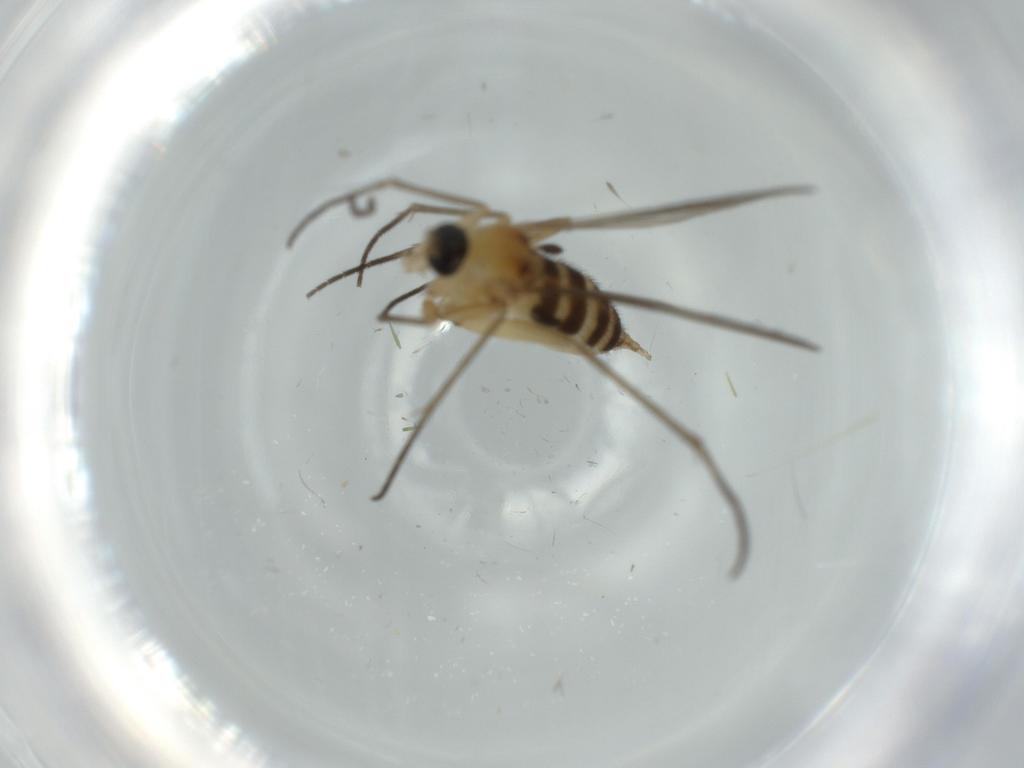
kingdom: Animalia
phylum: Arthropoda
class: Insecta
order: Diptera
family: Sciaridae
